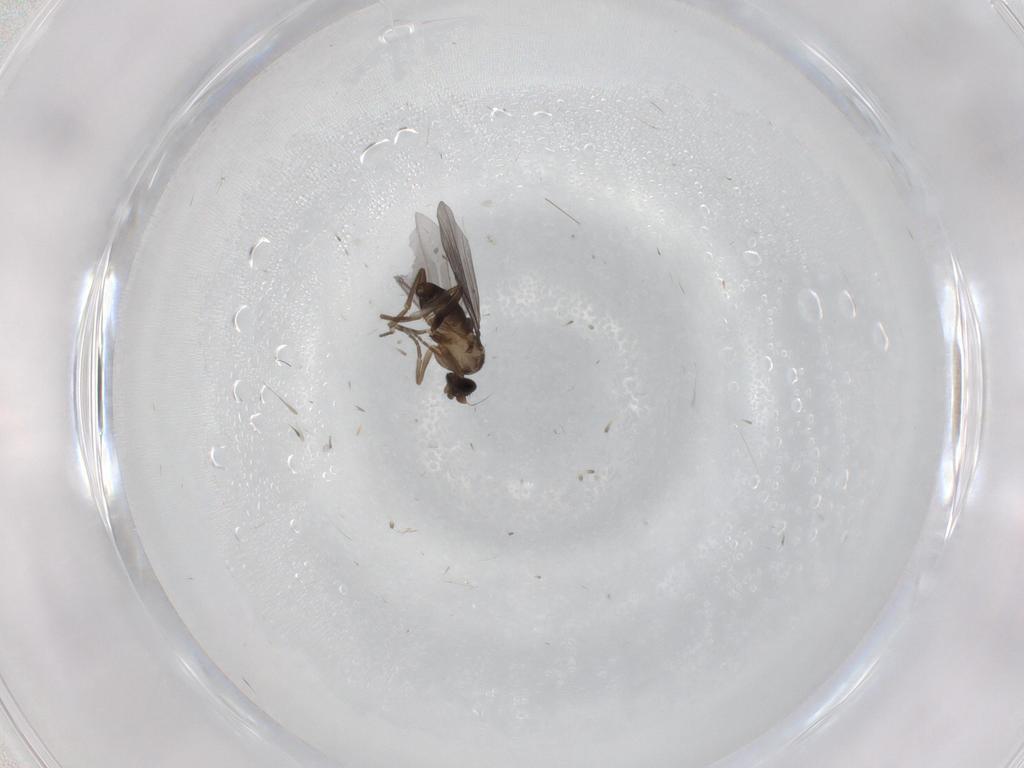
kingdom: Animalia
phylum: Arthropoda
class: Insecta
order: Diptera
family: Phoridae
